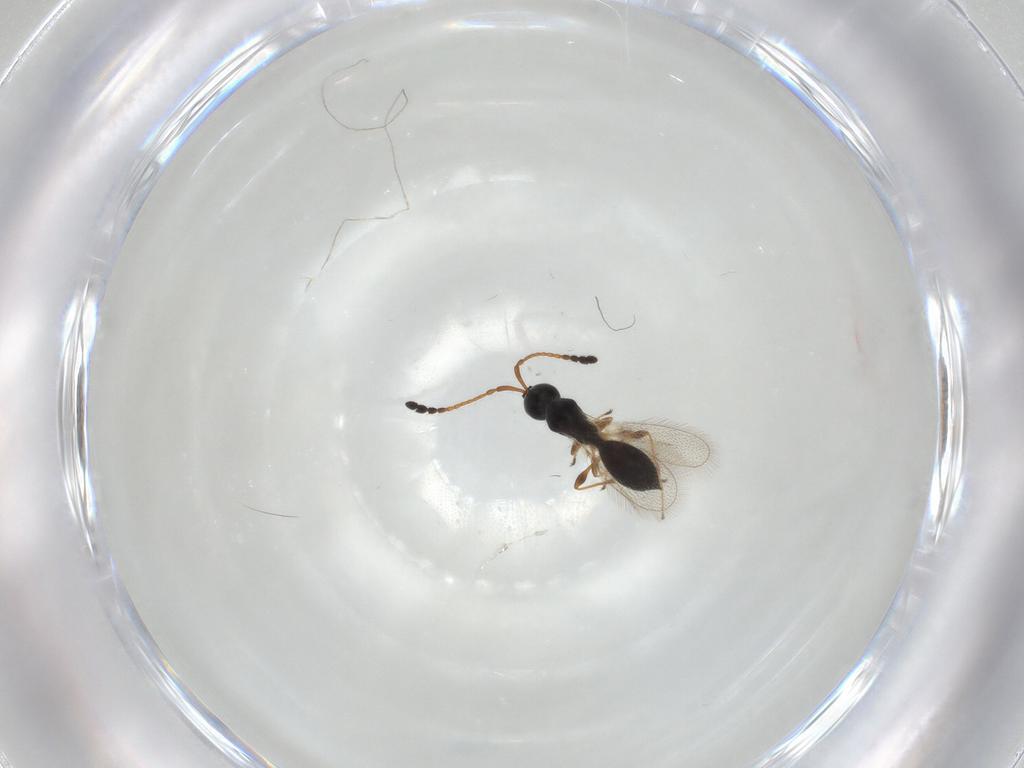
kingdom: Animalia
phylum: Arthropoda
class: Insecta
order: Hymenoptera
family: Diapriidae
